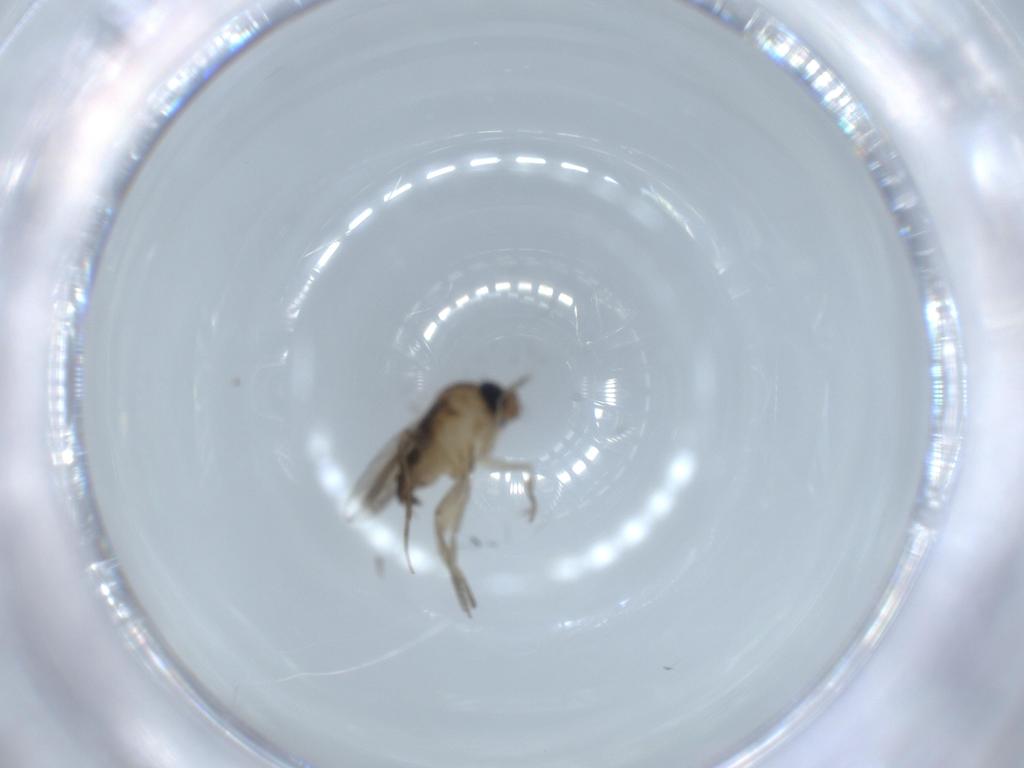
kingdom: Animalia
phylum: Arthropoda
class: Insecta
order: Diptera
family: Phoridae
